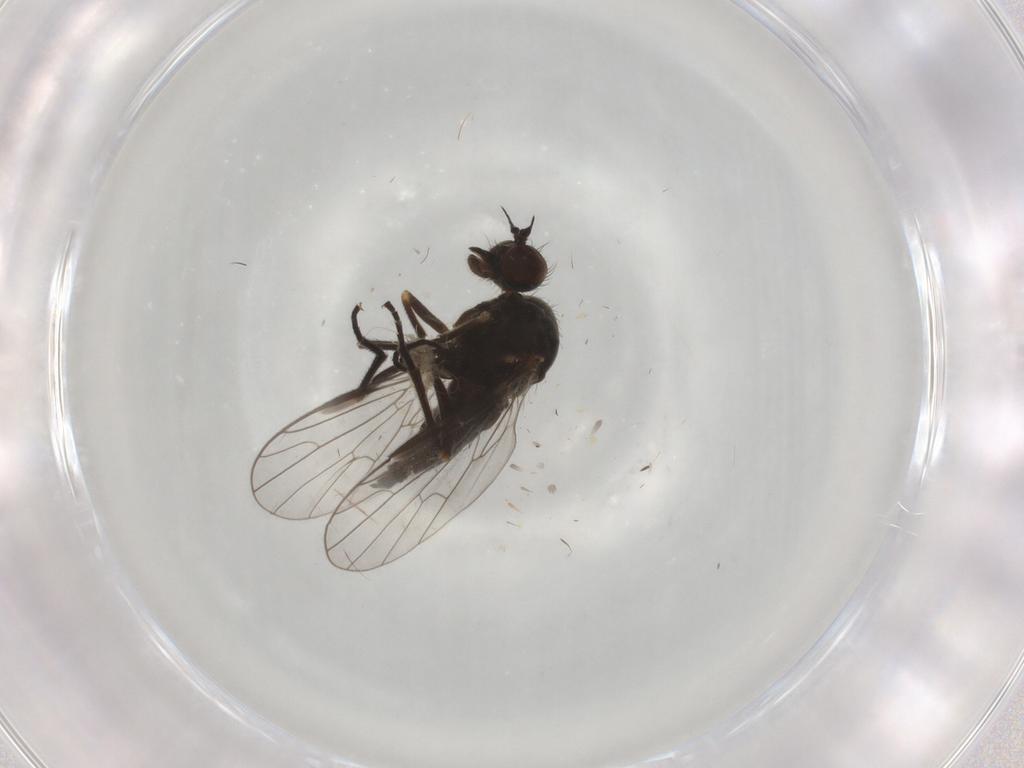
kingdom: Animalia
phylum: Arthropoda
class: Insecta
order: Diptera
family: Empididae
